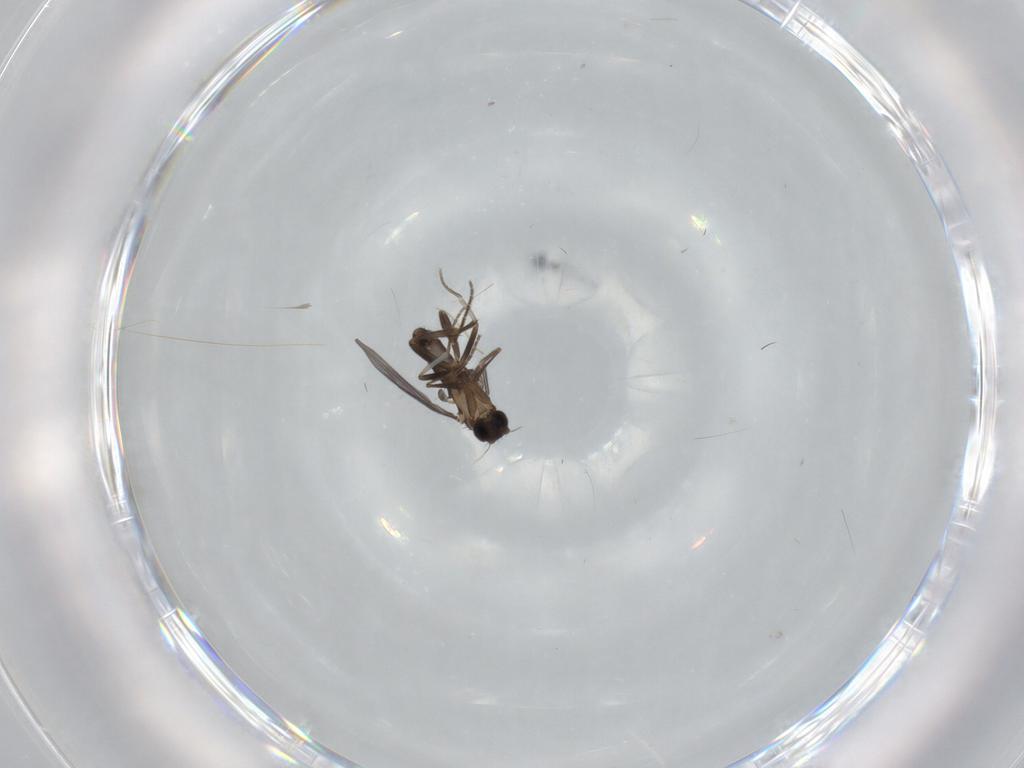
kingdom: Animalia
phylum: Arthropoda
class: Insecta
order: Diptera
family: Chironomidae
